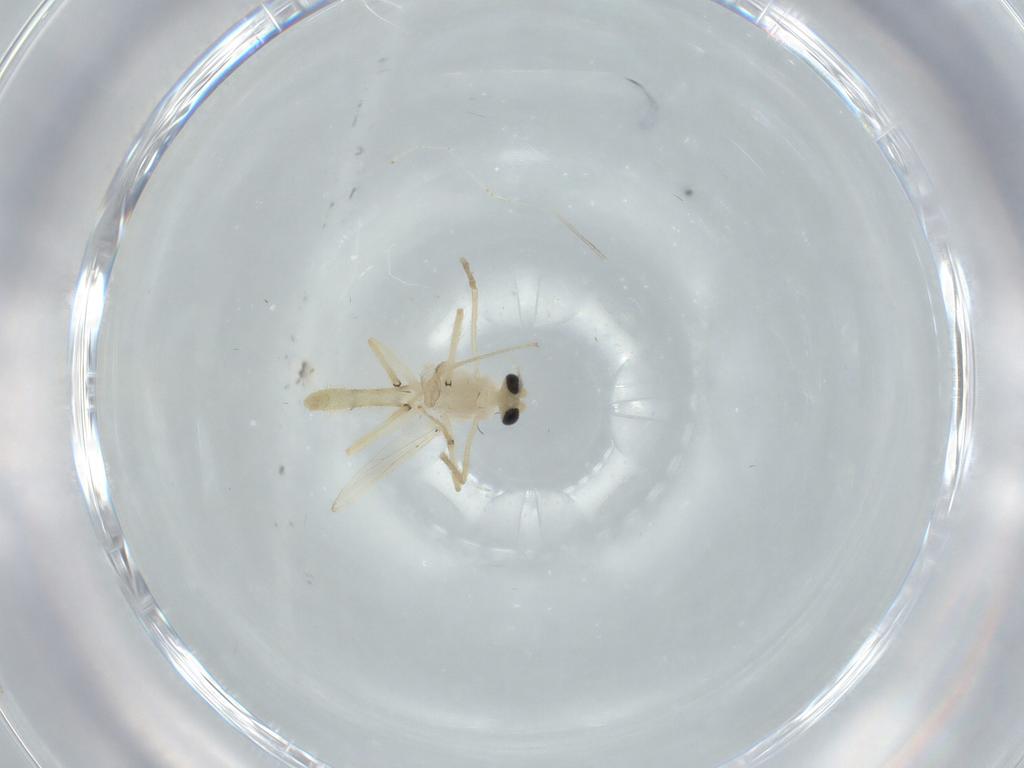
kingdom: Animalia
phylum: Arthropoda
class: Insecta
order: Diptera
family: Chironomidae
